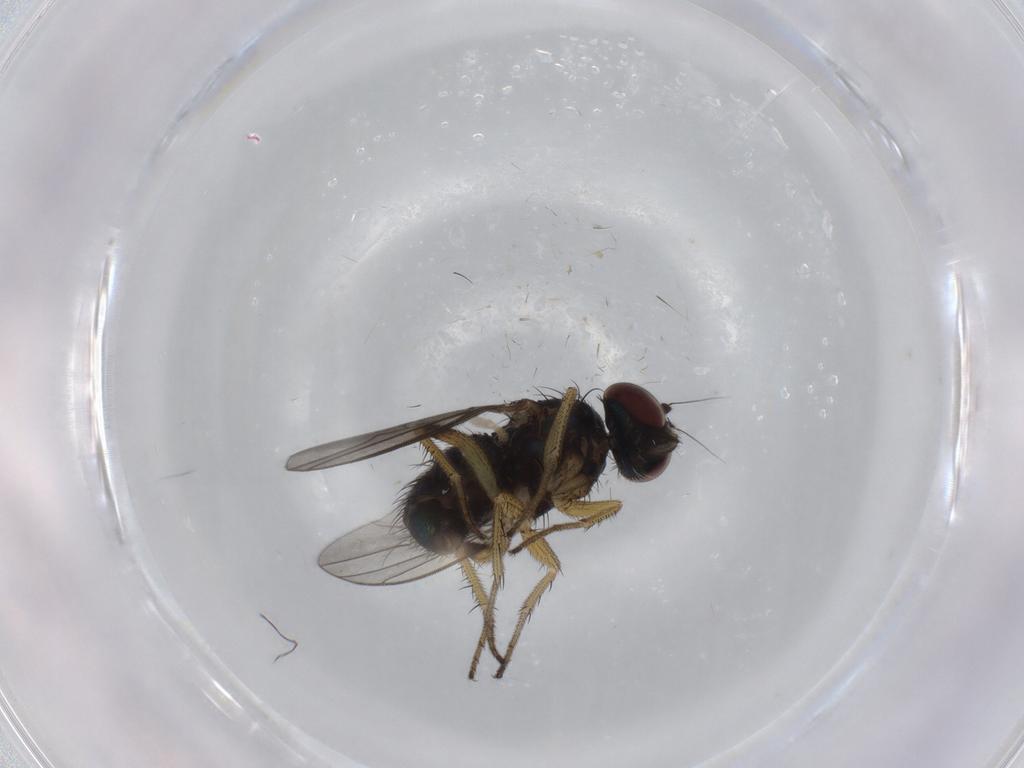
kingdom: Animalia
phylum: Arthropoda
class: Insecta
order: Diptera
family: Dolichopodidae
